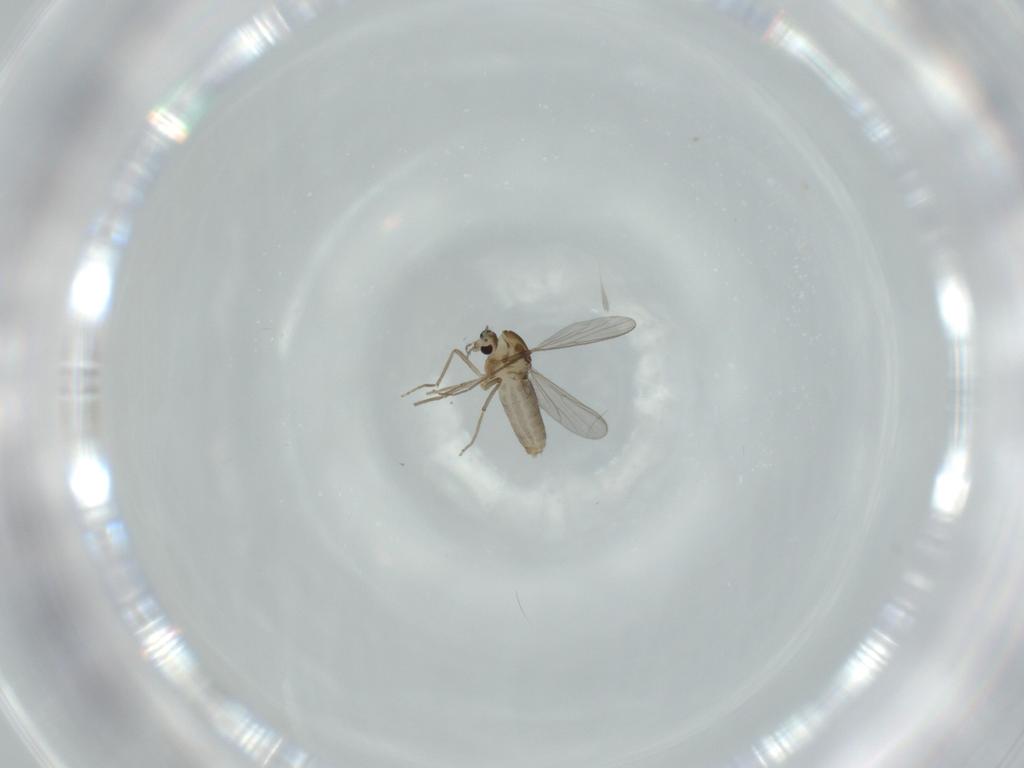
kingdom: Animalia
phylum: Arthropoda
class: Insecta
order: Diptera
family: Chironomidae
